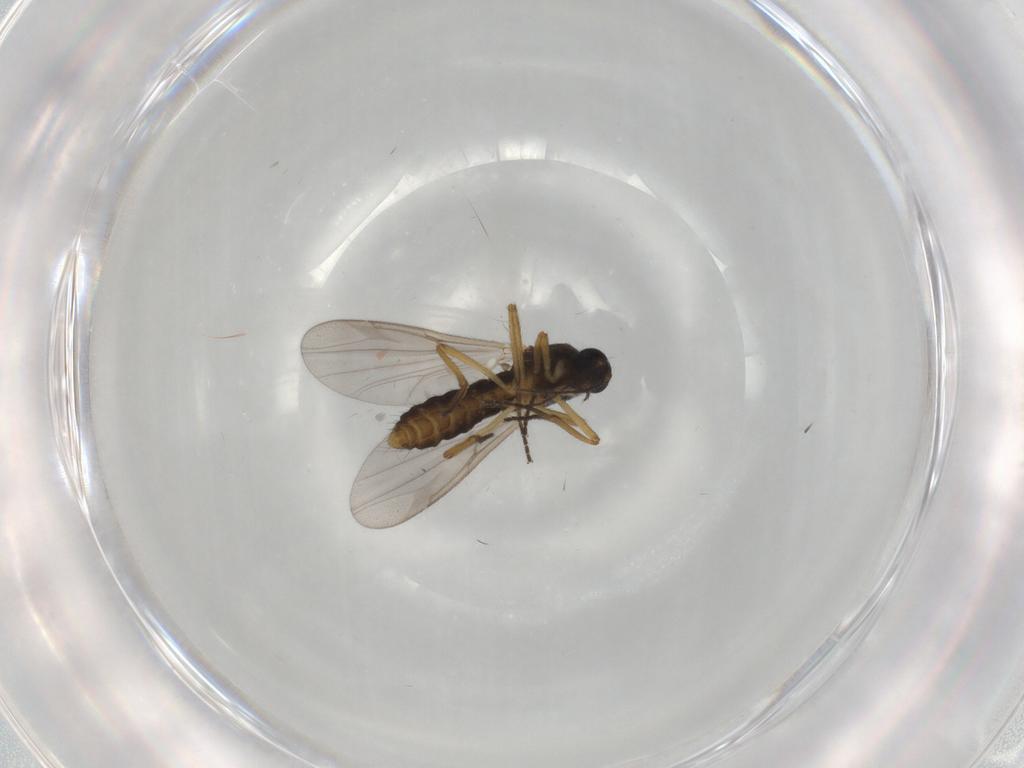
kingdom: Animalia
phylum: Arthropoda
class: Insecta
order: Diptera
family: Ceratopogonidae
